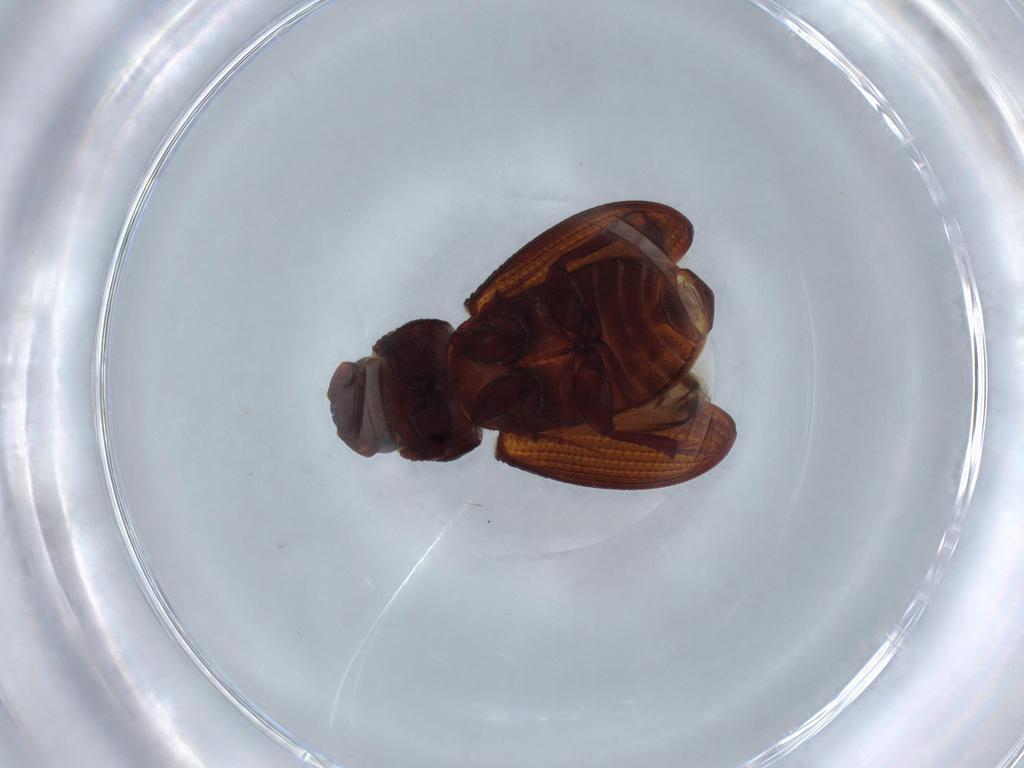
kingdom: Animalia
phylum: Arthropoda
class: Insecta
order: Coleoptera
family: Scarabaeidae
